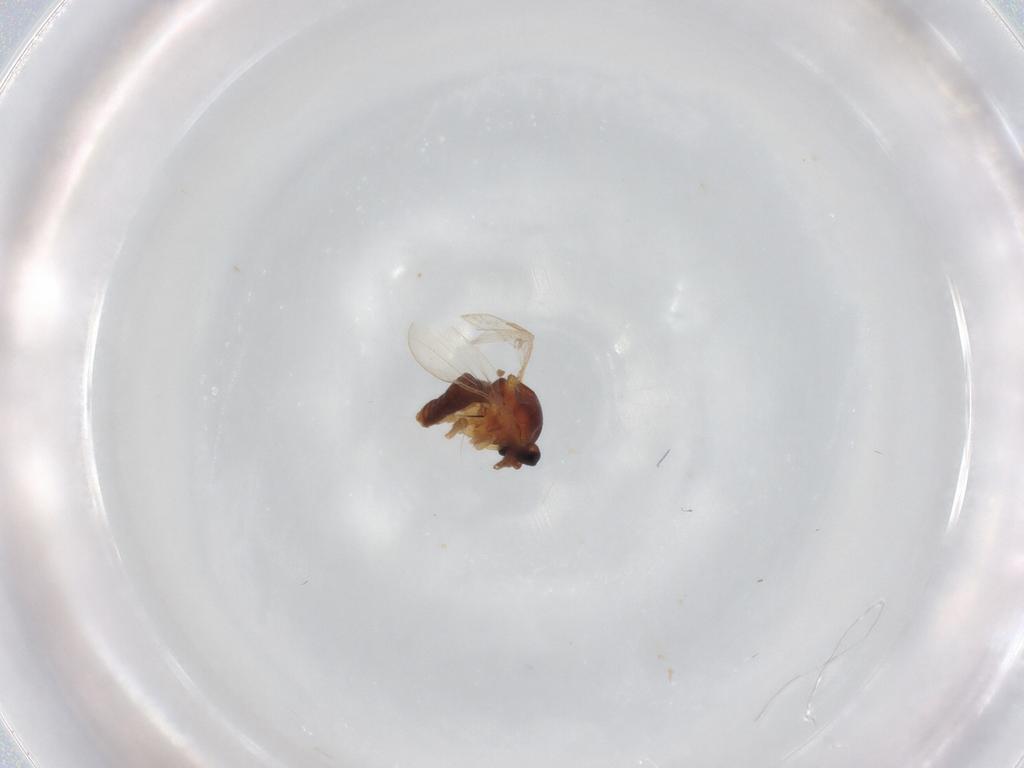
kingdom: Animalia
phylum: Arthropoda
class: Insecta
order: Diptera
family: Ceratopogonidae
